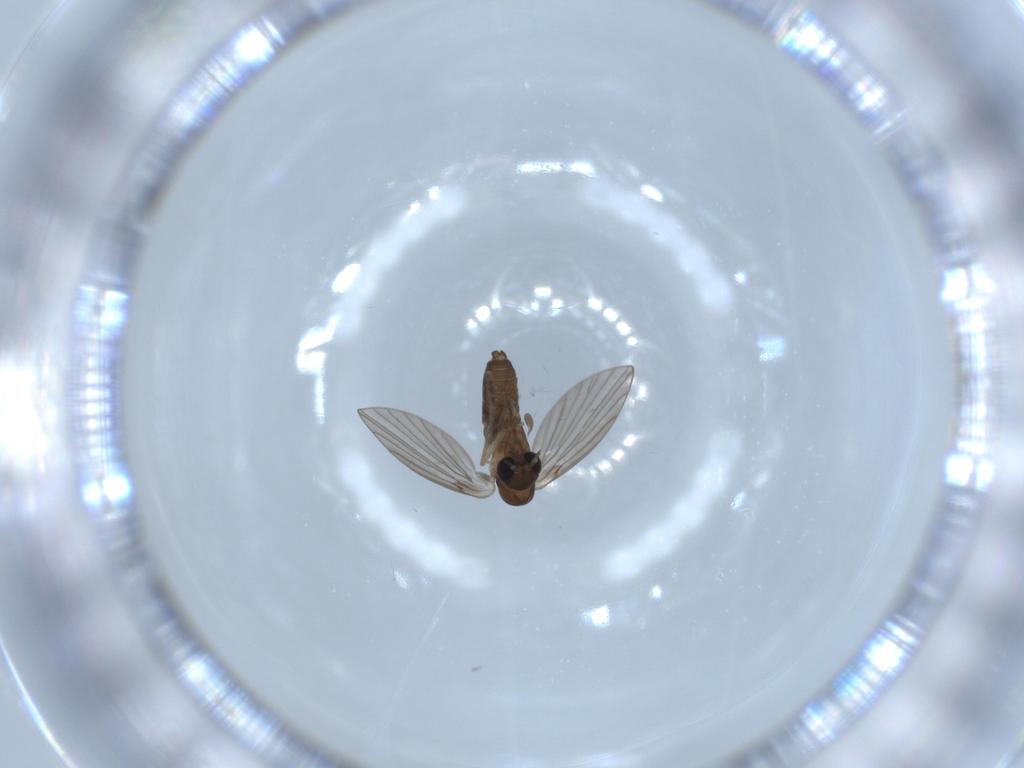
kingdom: Animalia
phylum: Arthropoda
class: Insecta
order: Diptera
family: Psychodidae
